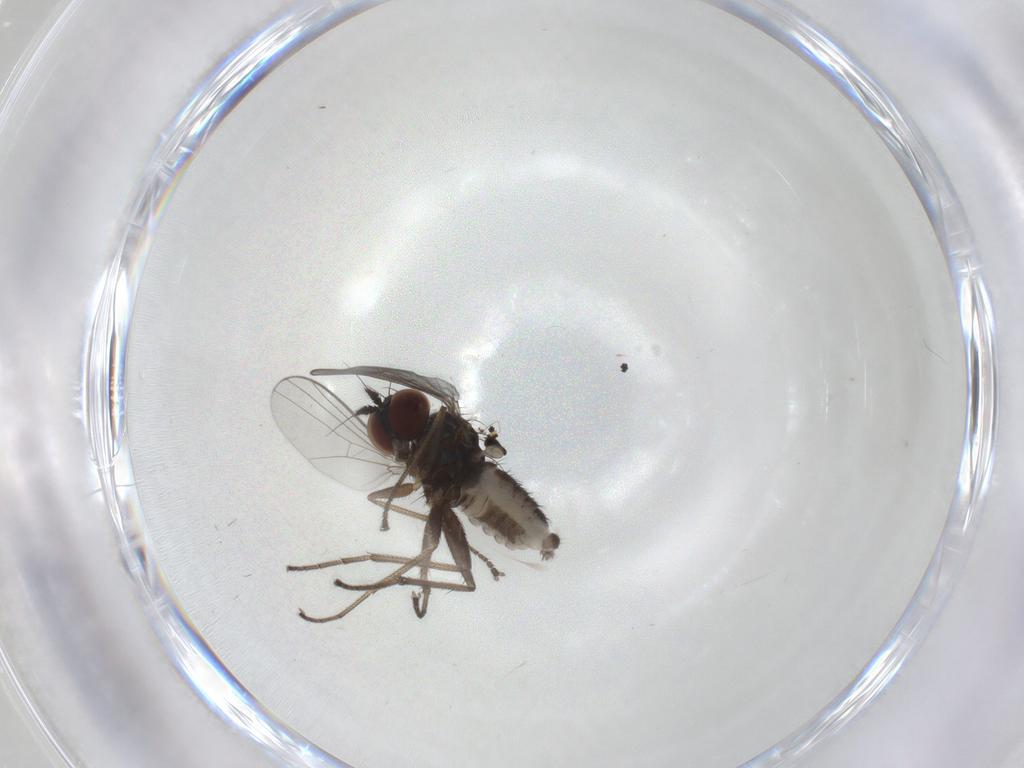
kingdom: Animalia
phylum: Arthropoda
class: Insecta
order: Diptera
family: Dolichopodidae
